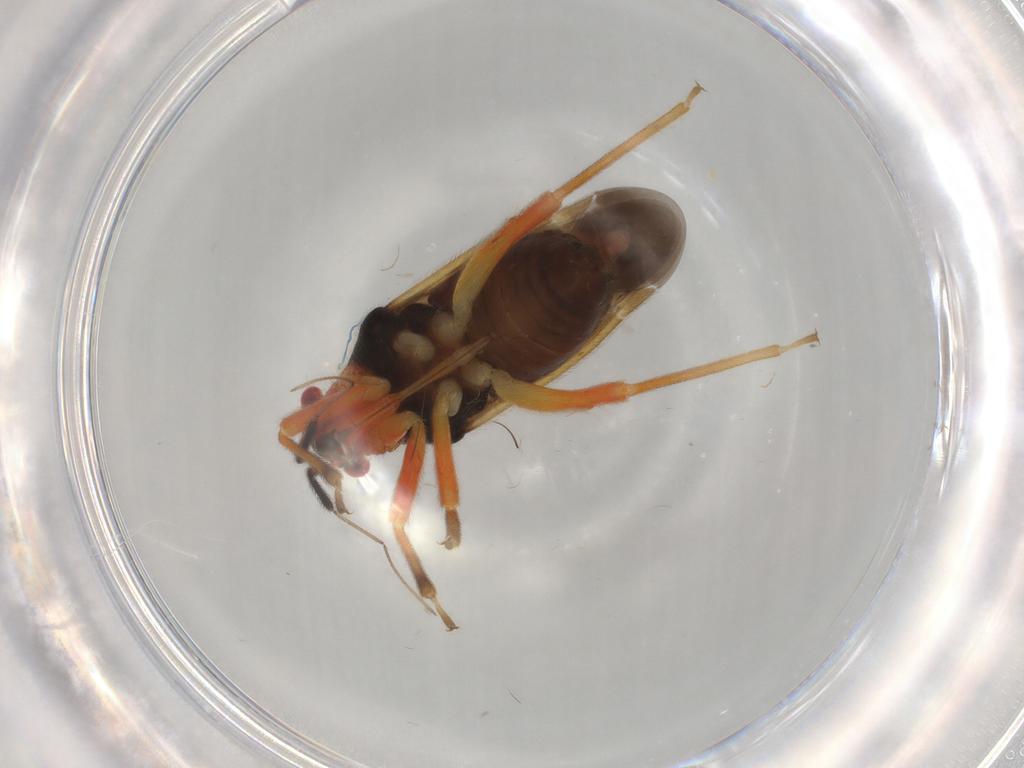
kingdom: Animalia
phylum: Arthropoda
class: Insecta
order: Hemiptera
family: Miridae
